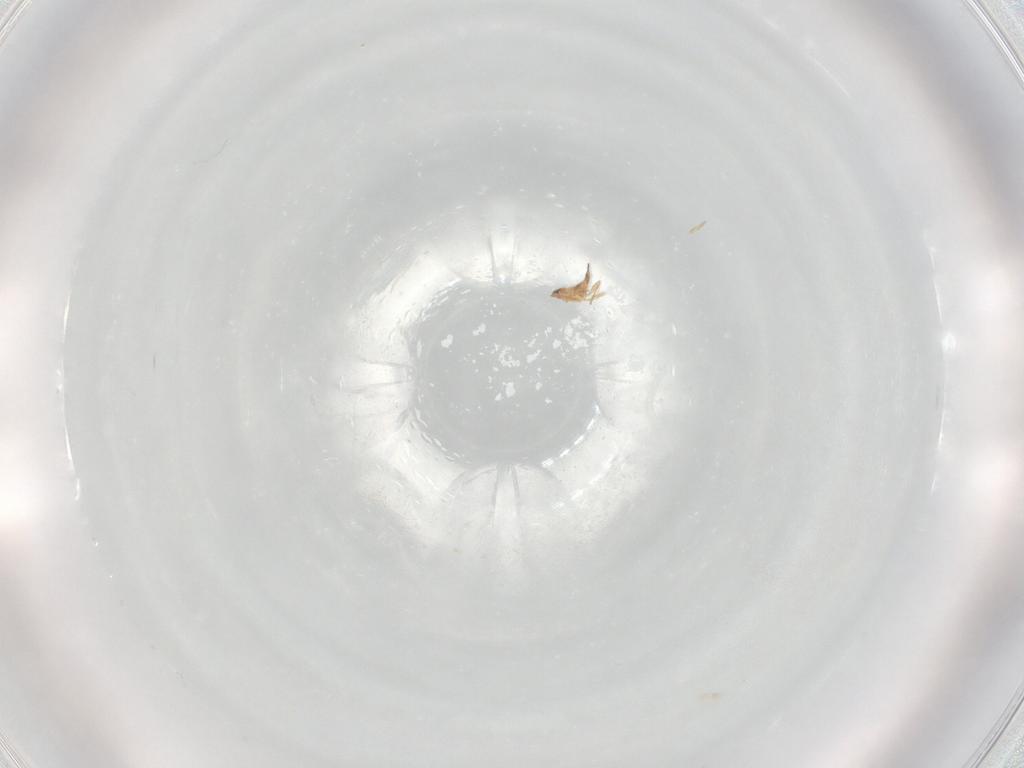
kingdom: Animalia
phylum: Arthropoda
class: Insecta
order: Hymenoptera
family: Mymaridae
